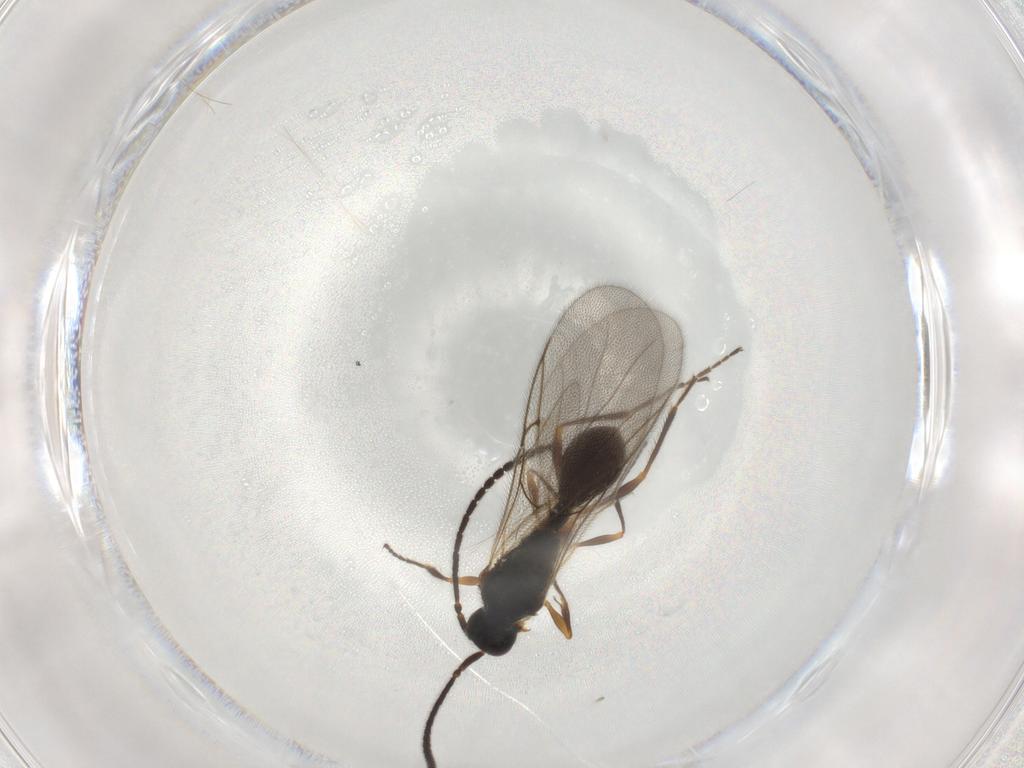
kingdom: Animalia
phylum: Arthropoda
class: Insecta
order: Hymenoptera
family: Diapriidae
